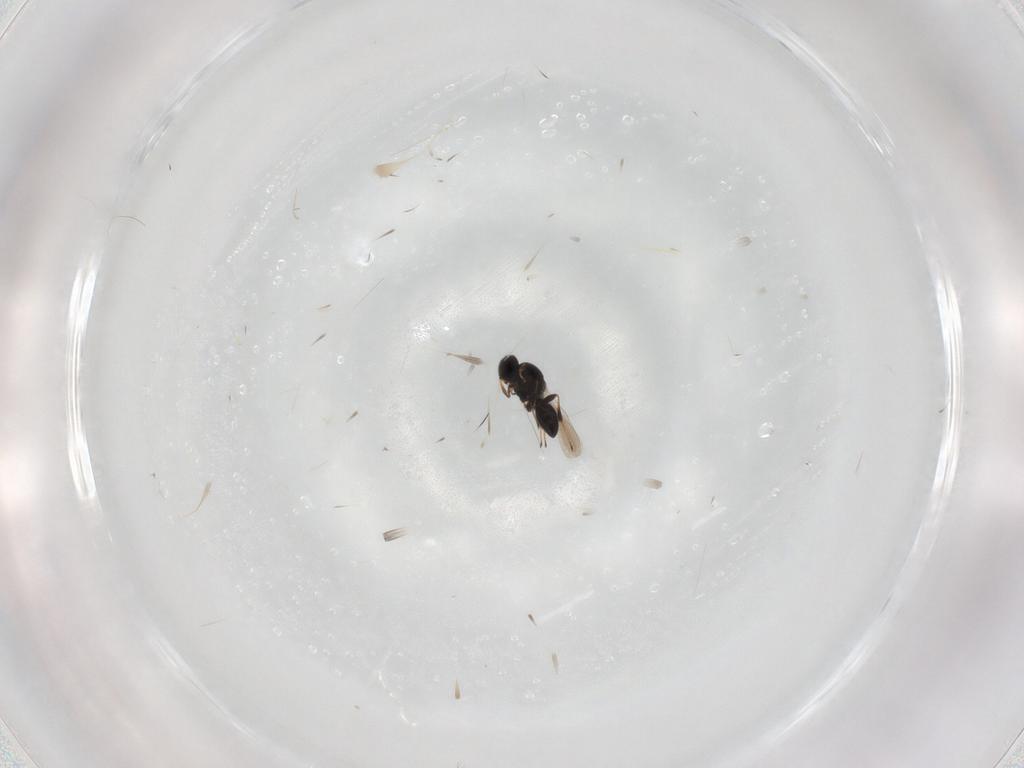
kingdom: Animalia
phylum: Arthropoda
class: Insecta
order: Hymenoptera
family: Platygastridae
